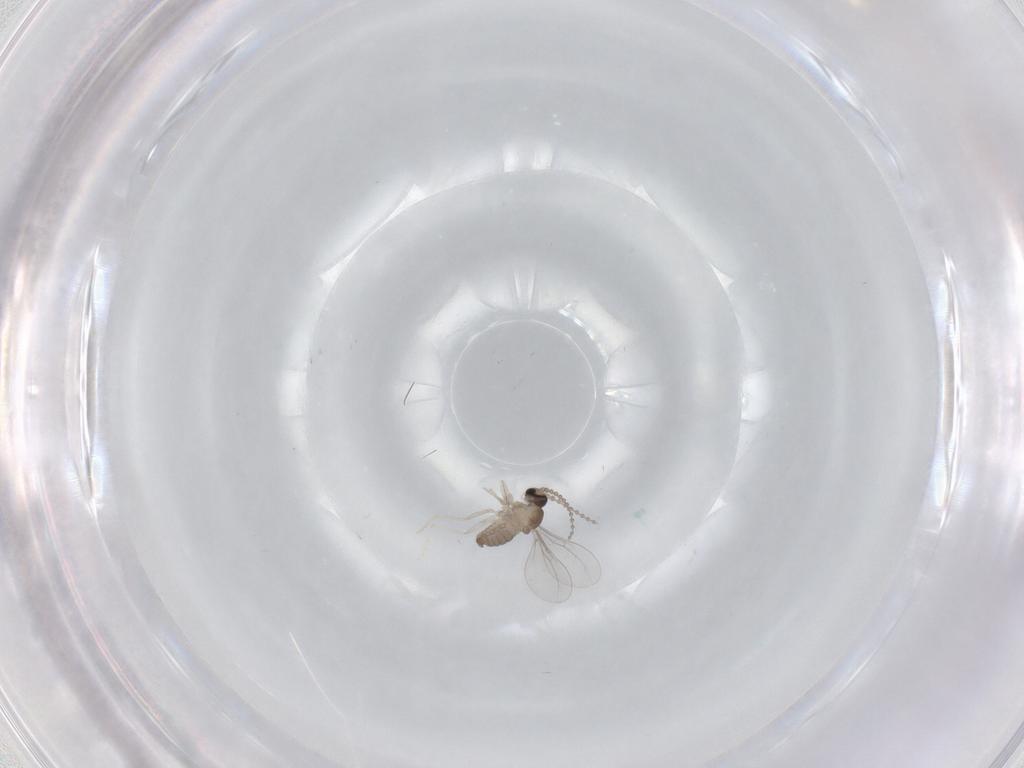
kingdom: Animalia
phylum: Arthropoda
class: Insecta
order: Diptera
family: Cecidomyiidae
